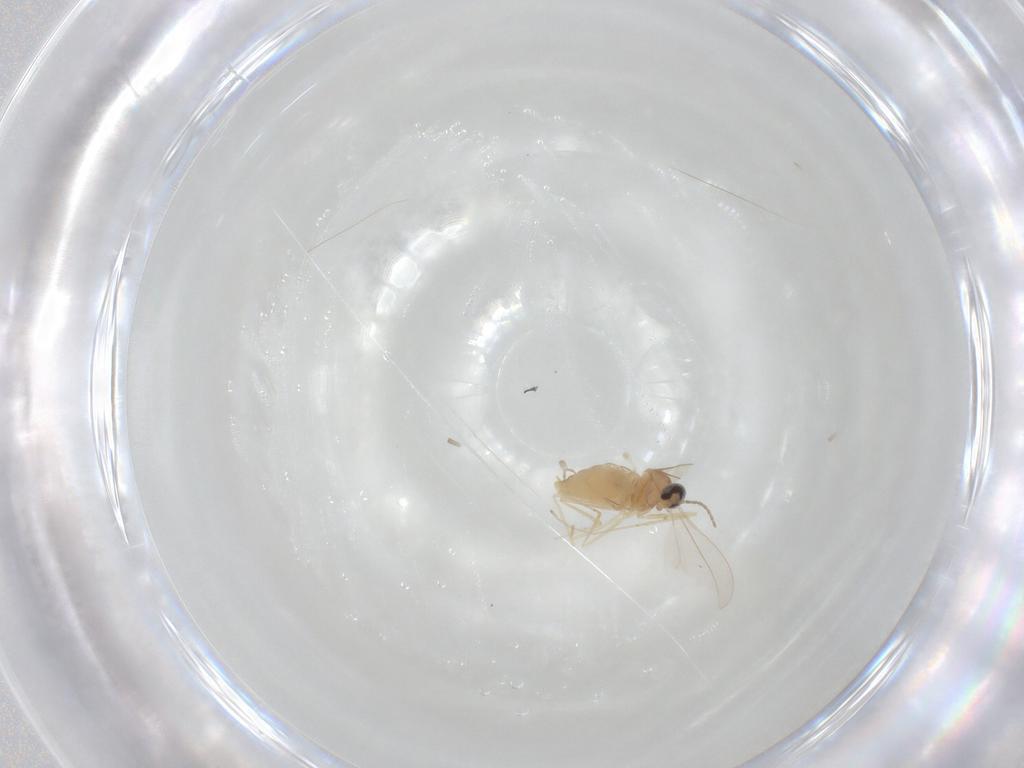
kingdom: Animalia
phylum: Arthropoda
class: Insecta
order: Diptera
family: Cecidomyiidae
